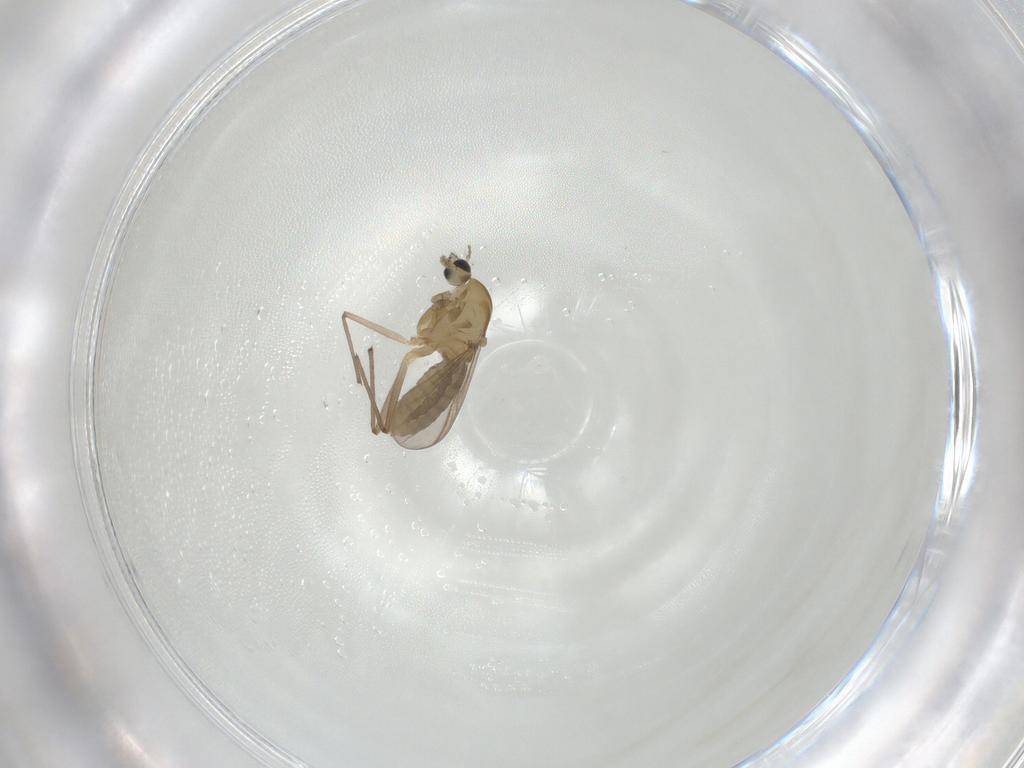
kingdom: Animalia
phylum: Arthropoda
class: Insecta
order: Diptera
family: Chironomidae
